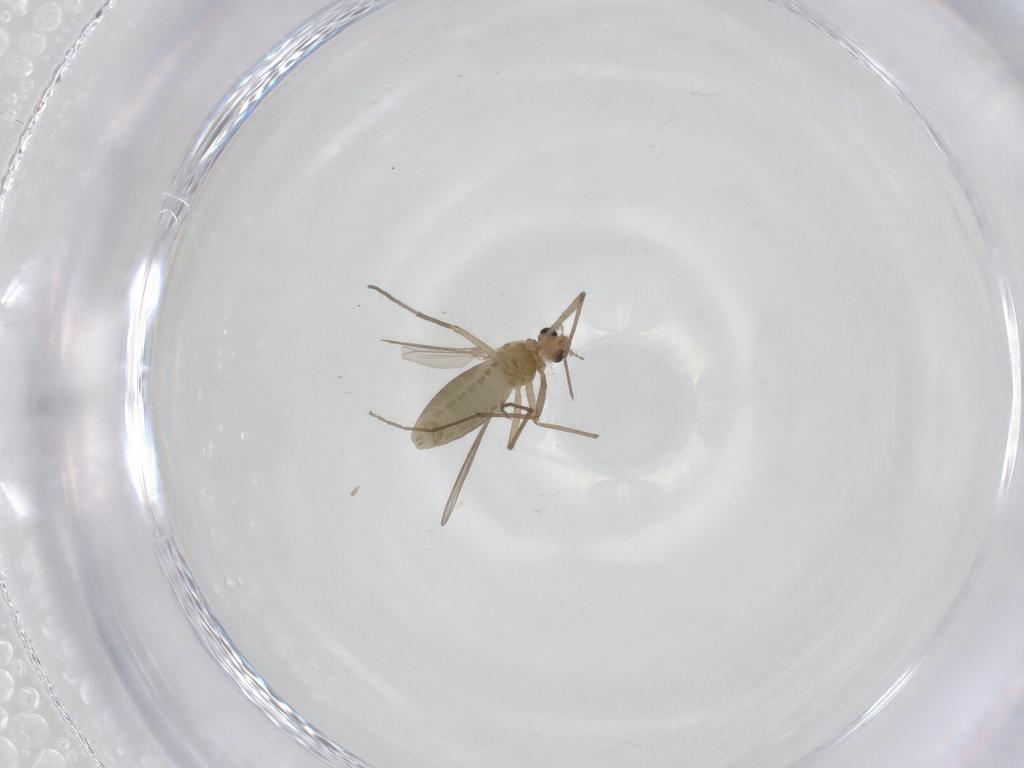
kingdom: Animalia
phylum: Arthropoda
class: Insecta
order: Diptera
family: Chironomidae
